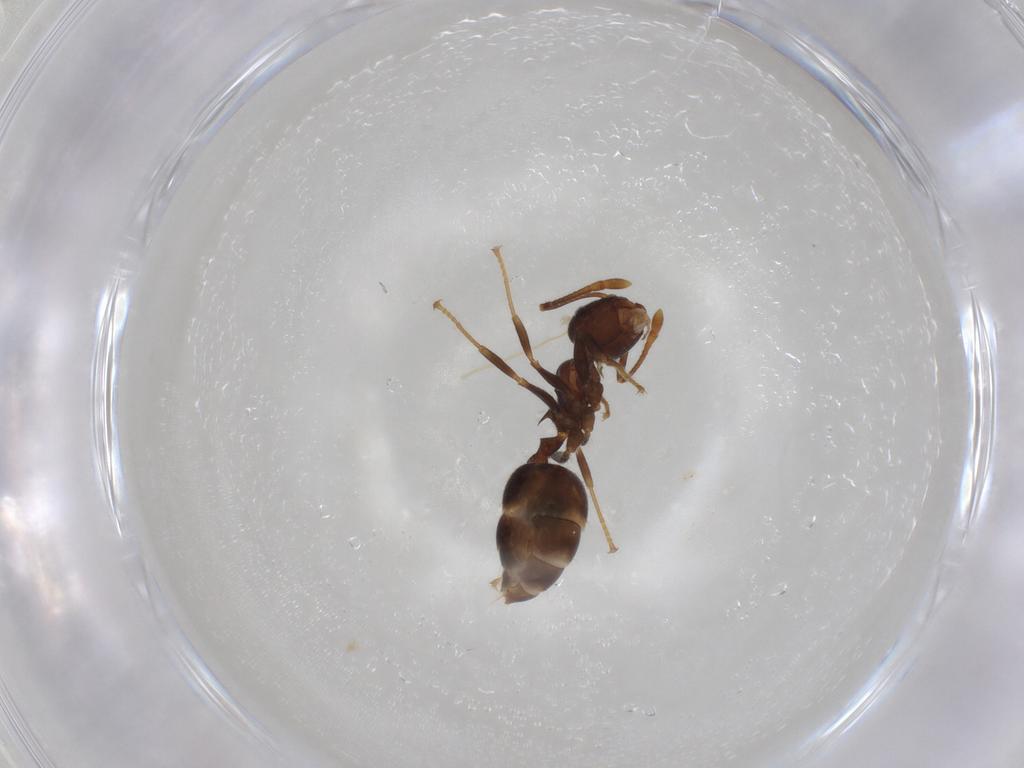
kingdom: Animalia
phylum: Arthropoda
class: Insecta
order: Hymenoptera
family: Formicidae
